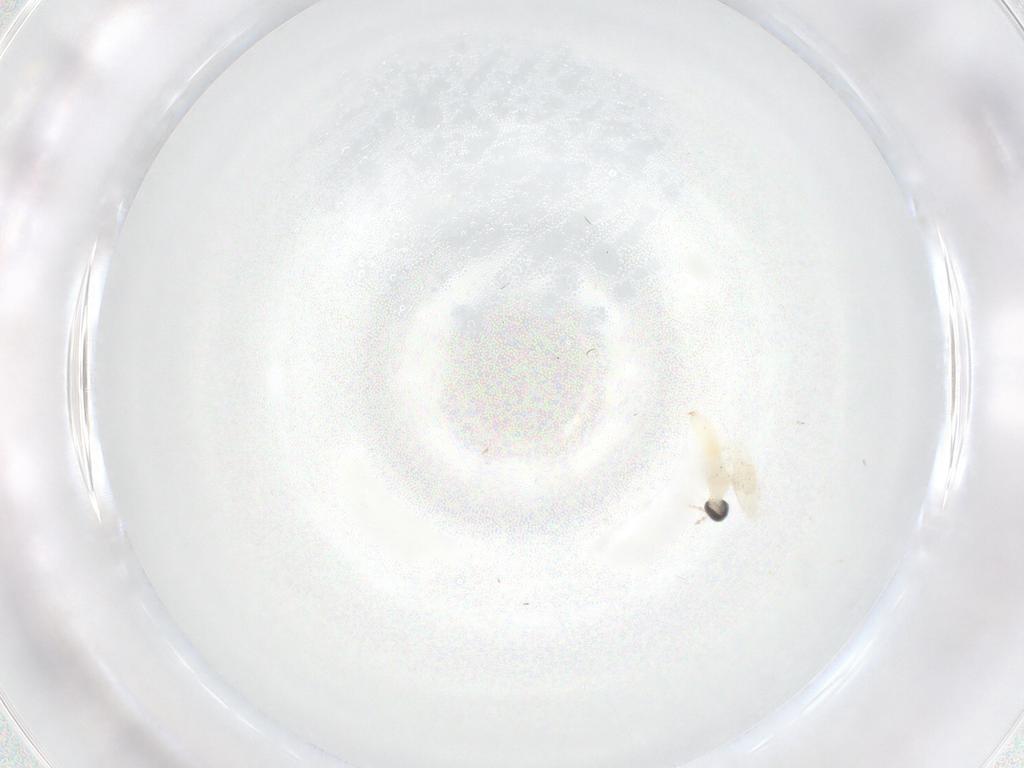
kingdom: Animalia
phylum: Arthropoda
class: Insecta
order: Diptera
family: Cecidomyiidae
